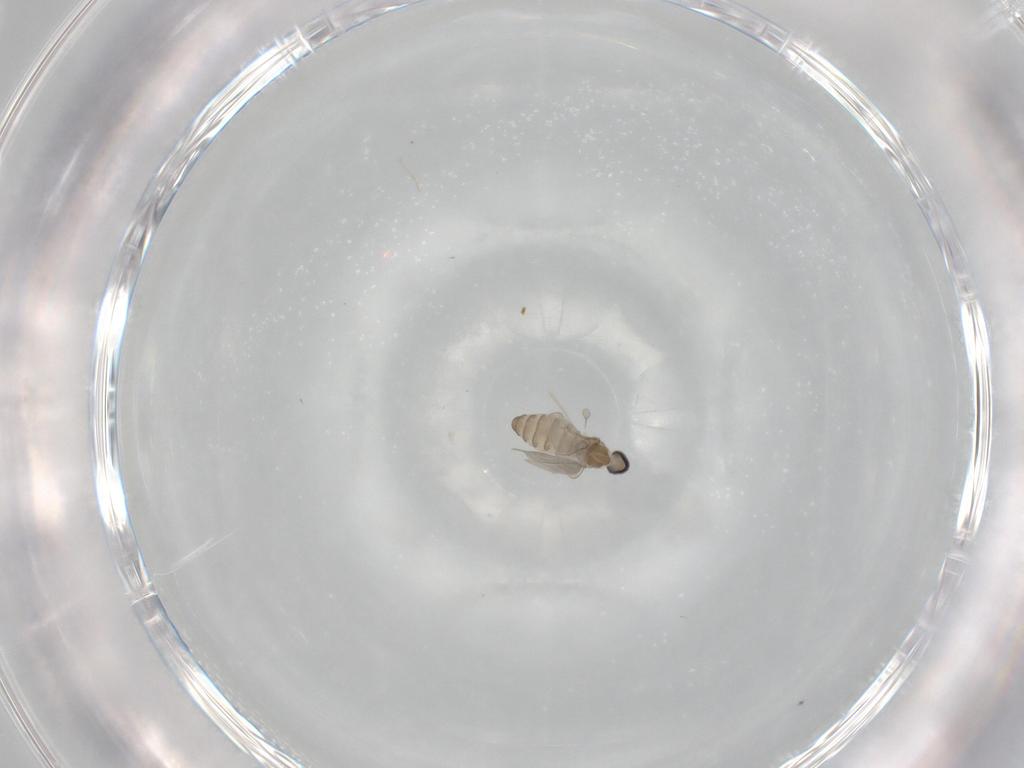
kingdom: Animalia
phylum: Arthropoda
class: Insecta
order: Diptera
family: Cecidomyiidae
